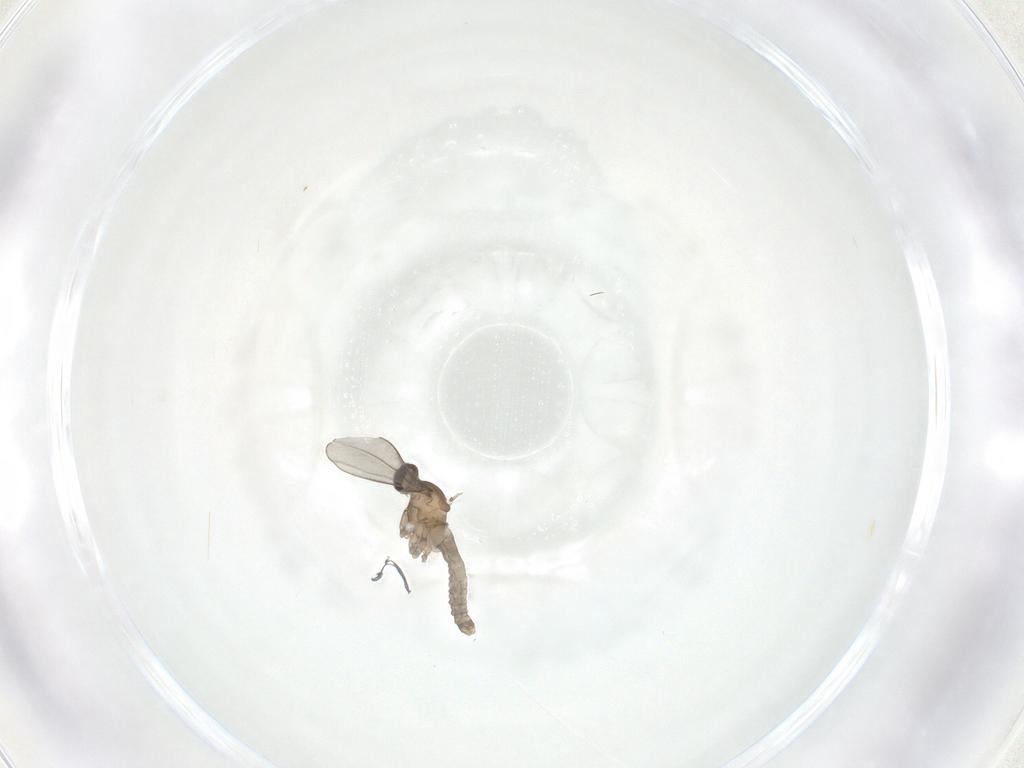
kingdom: Animalia
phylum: Arthropoda
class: Insecta
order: Diptera
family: Cecidomyiidae
